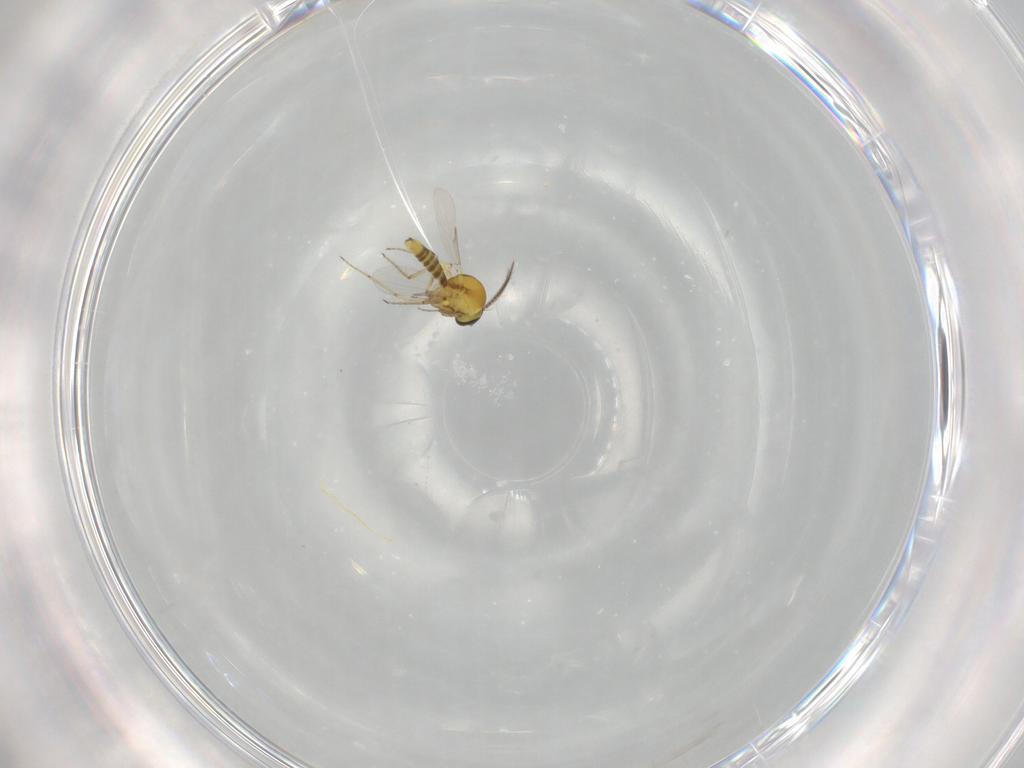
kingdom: Animalia
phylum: Arthropoda
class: Insecta
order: Diptera
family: Ceratopogonidae
